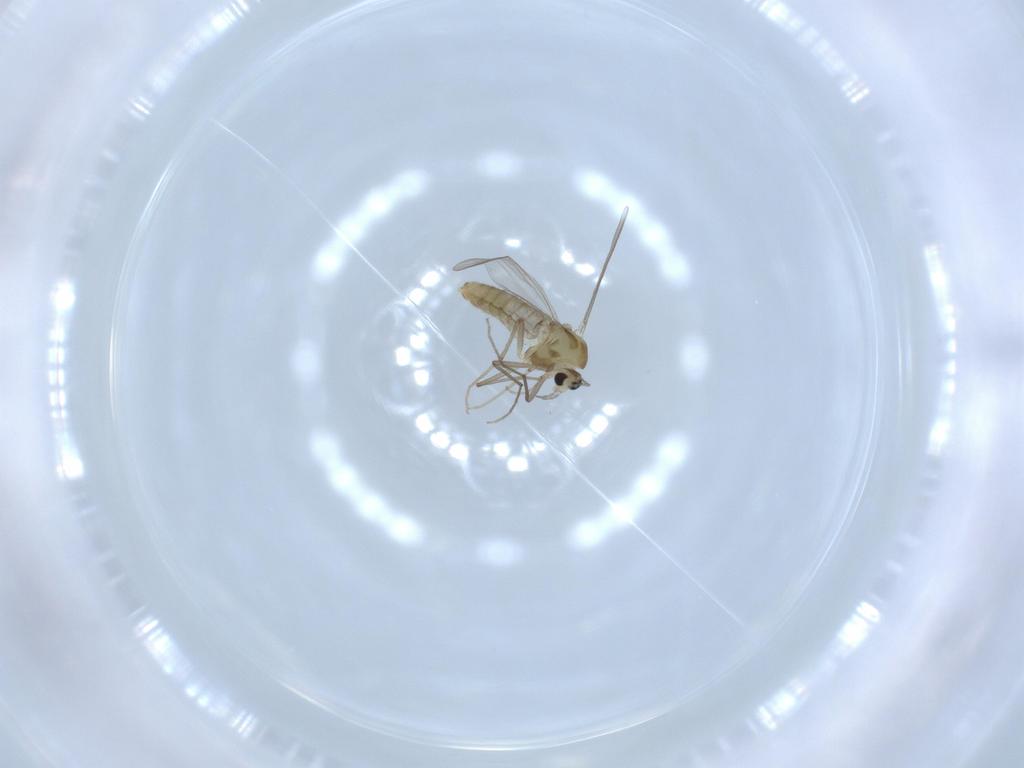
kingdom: Animalia
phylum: Arthropoda
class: Insecta
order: Diptera
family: Chironomidae
